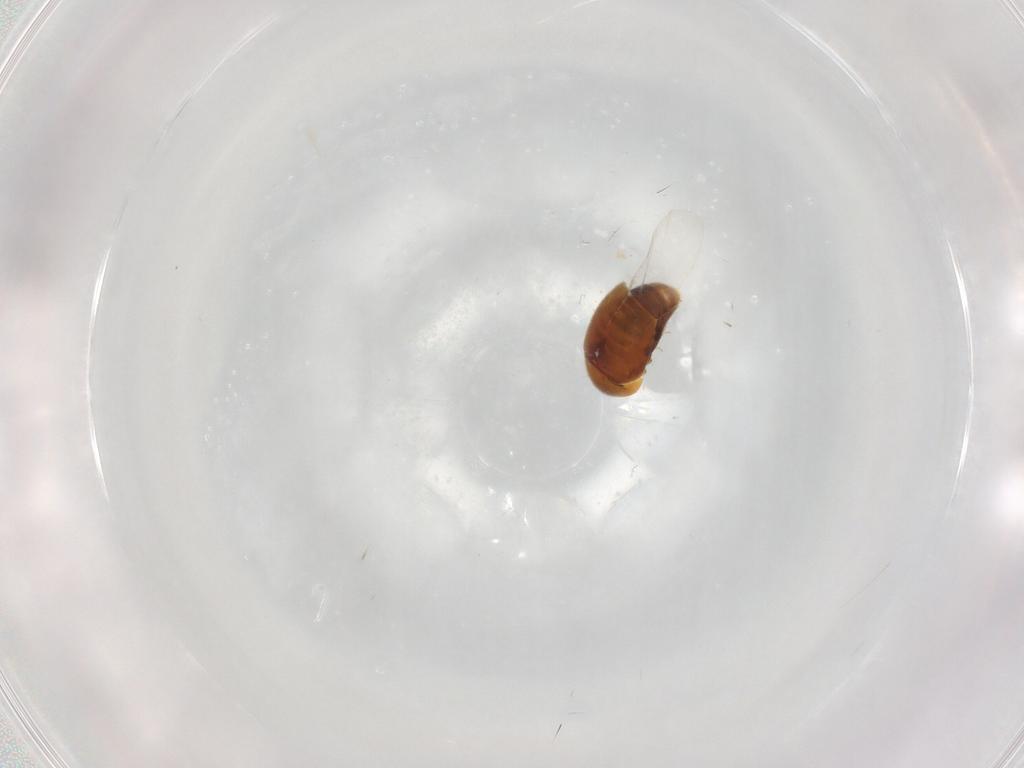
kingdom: Animalia
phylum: Arthropoda
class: Insecta
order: Coleoptera
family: Corylophidae
